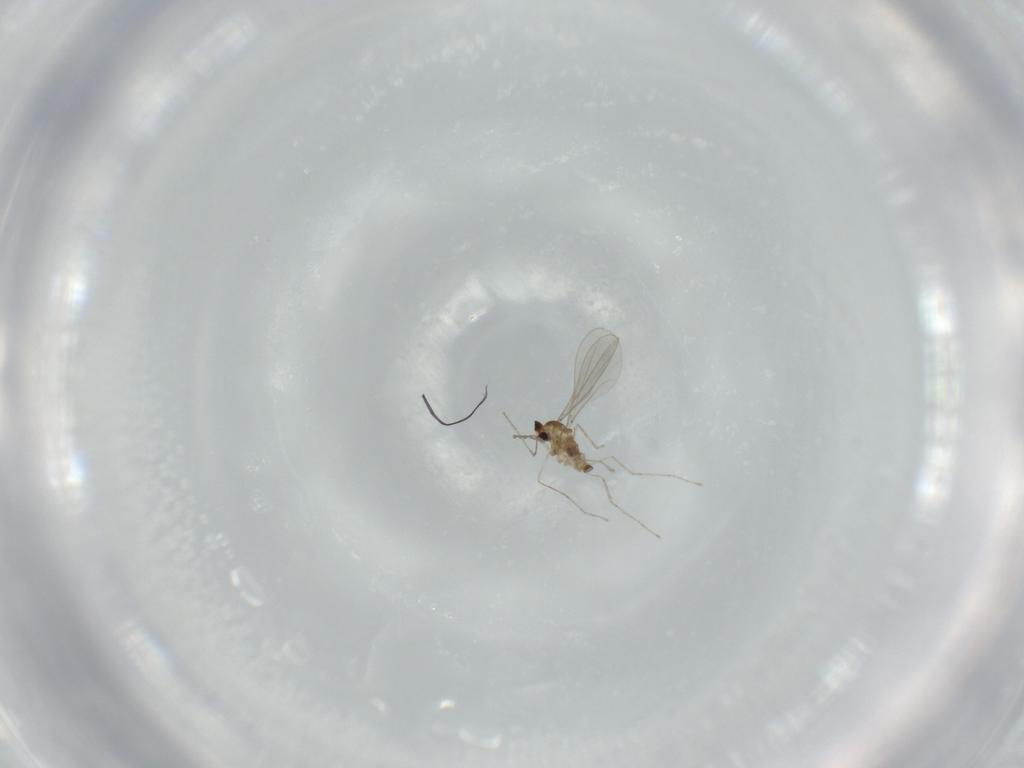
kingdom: Animalia
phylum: Arthropoda
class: Insecta
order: Diptera
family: Cecidomyiidae
